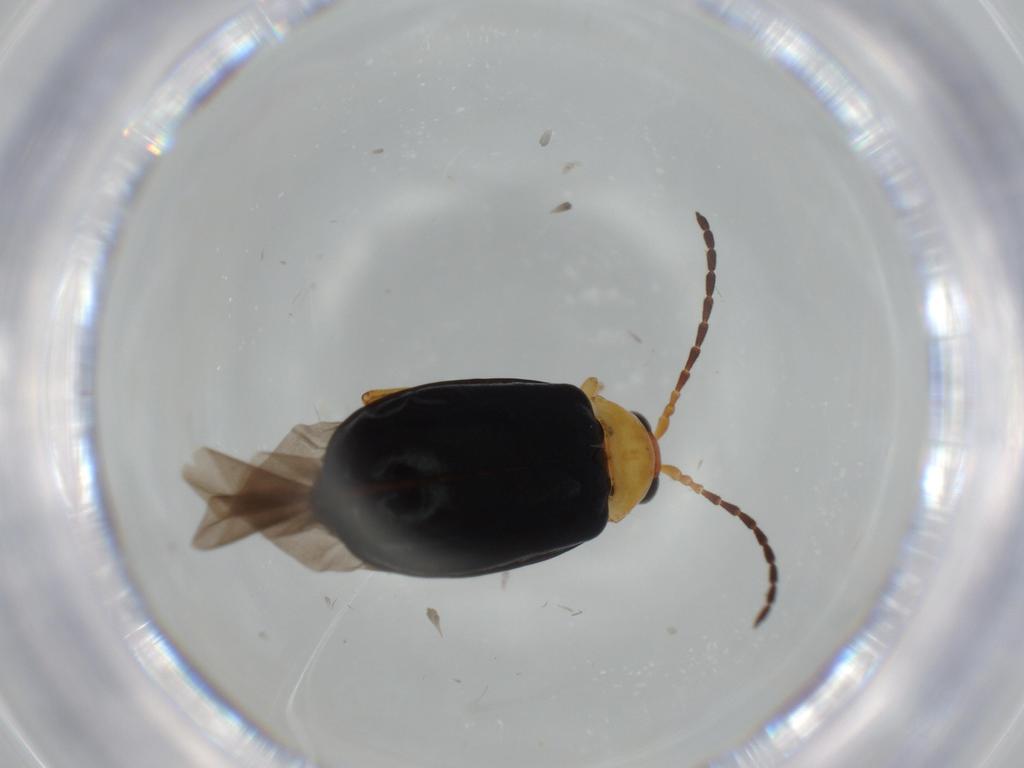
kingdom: Animalia
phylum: Arthropoda
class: Insecta
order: Coleoptera
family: Chrysomelidae
